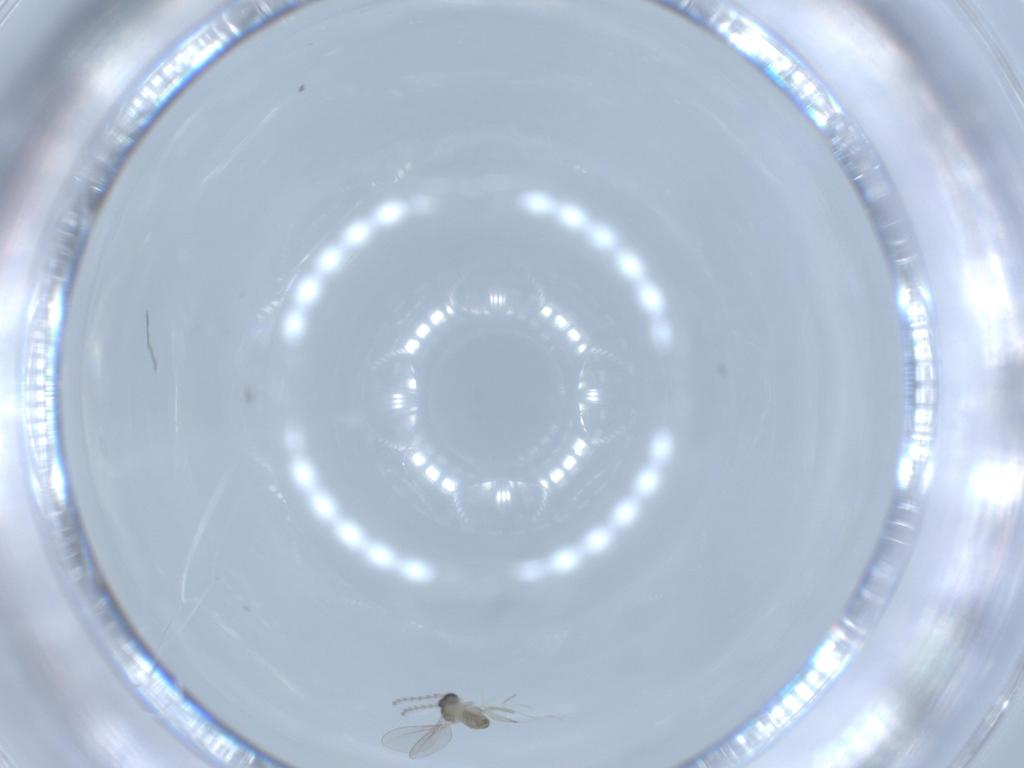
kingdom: Animalia
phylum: Arthropoda
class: Insecta
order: Diptera
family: Cecidomyiidae
